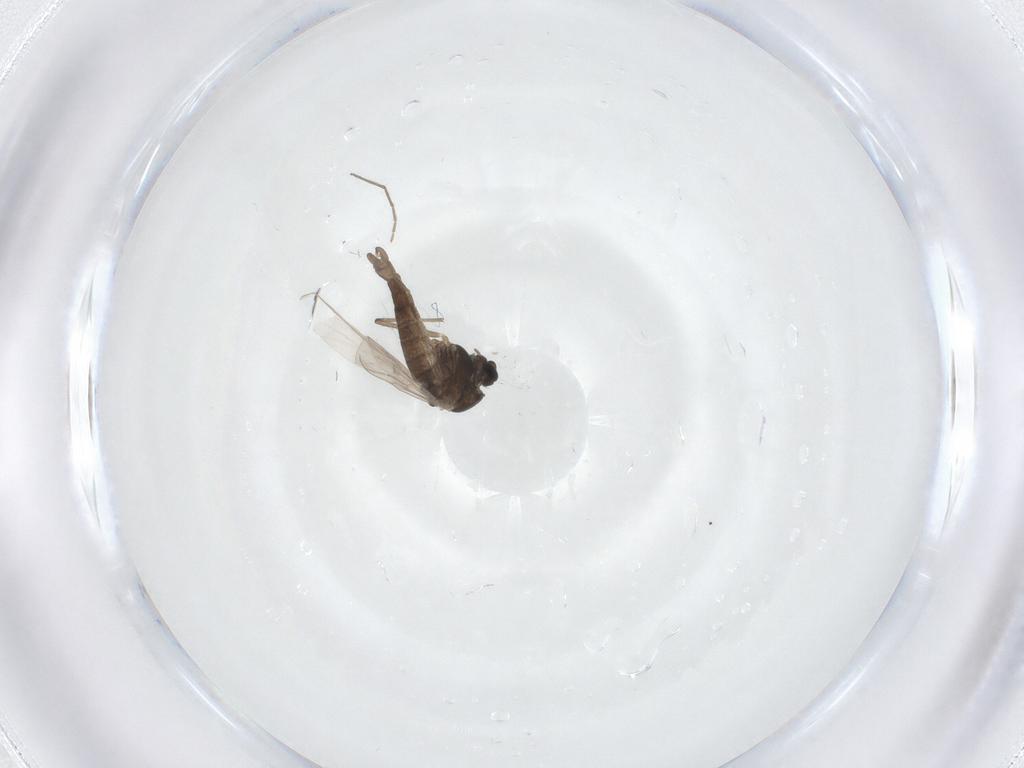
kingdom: Animalia
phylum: Arthropoda
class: Insecta
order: Diptera
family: Chironomidae
